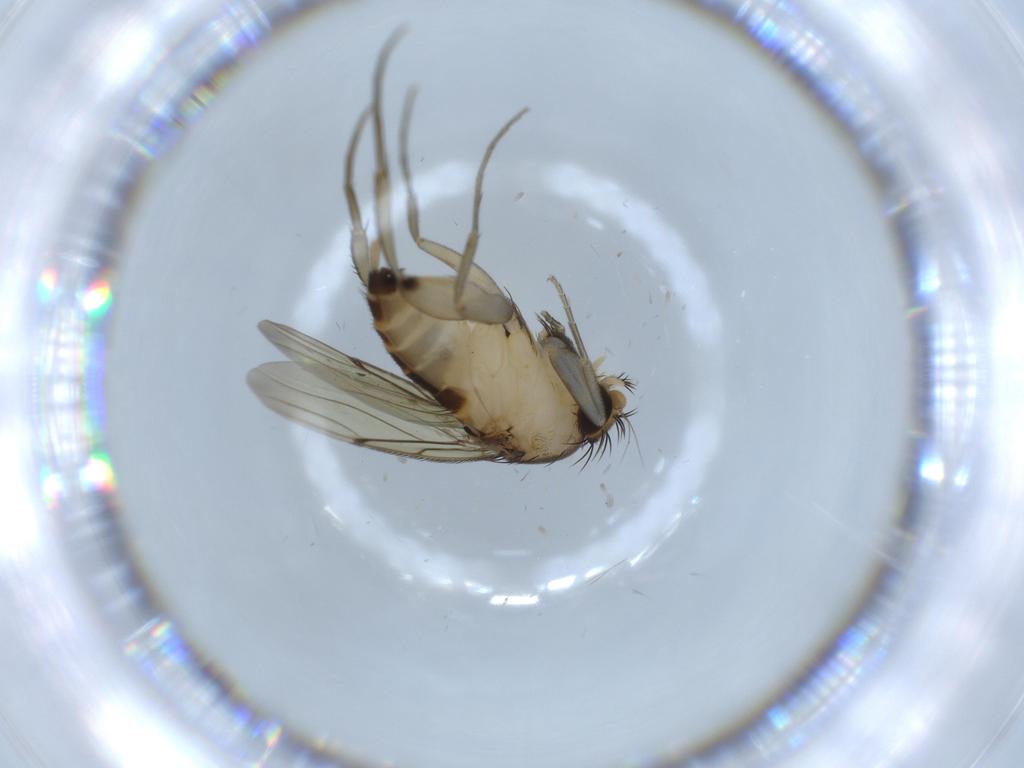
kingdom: Animalia
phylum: Arthropoda
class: Insecta
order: Diptera
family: Phoridae
